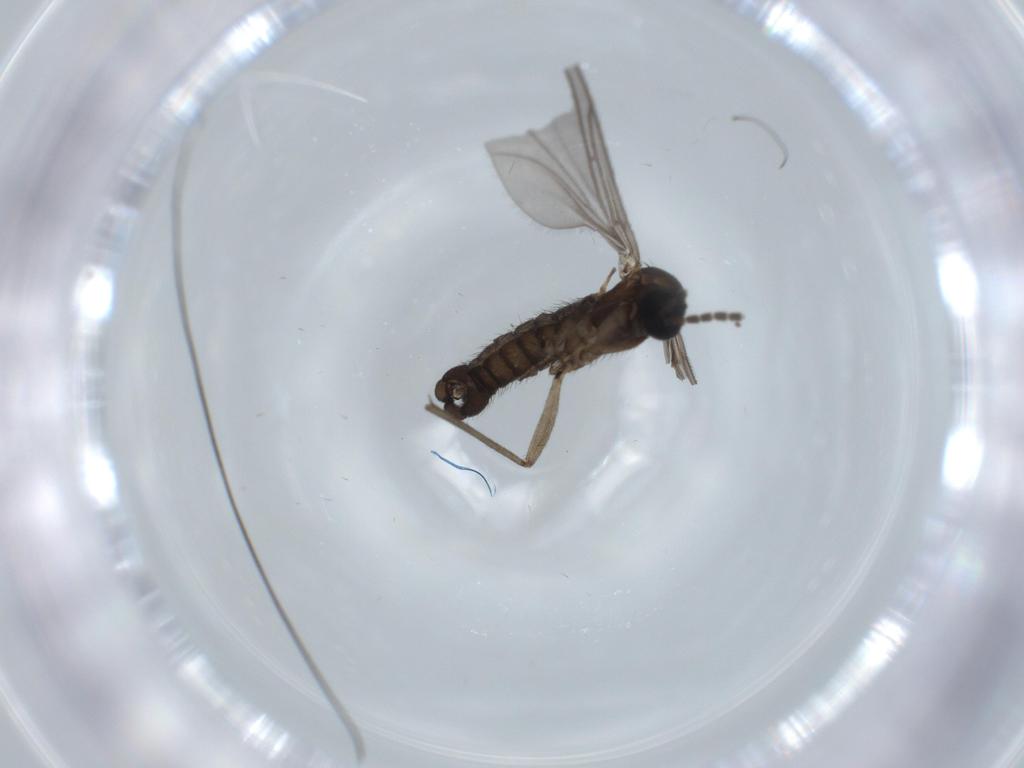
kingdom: Animalia
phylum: Arthropoda
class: Insecta
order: Diptera
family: Sciaridae
